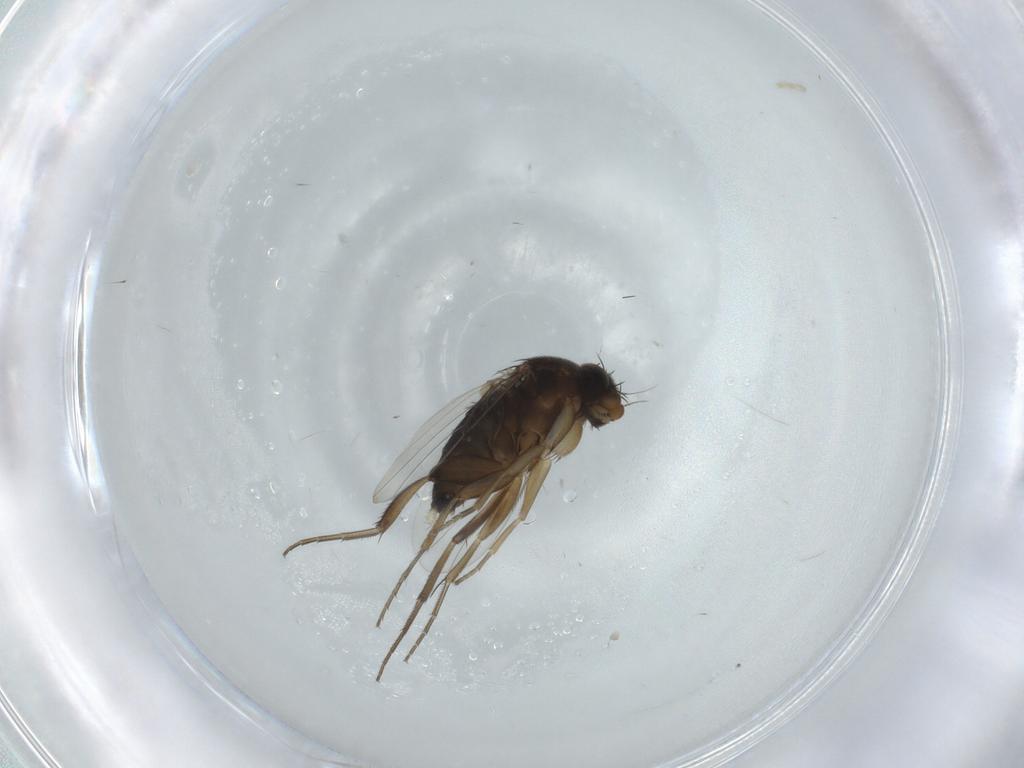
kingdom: Animalia
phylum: Arthropoda
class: Insecta
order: Diptera
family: Phoridae
